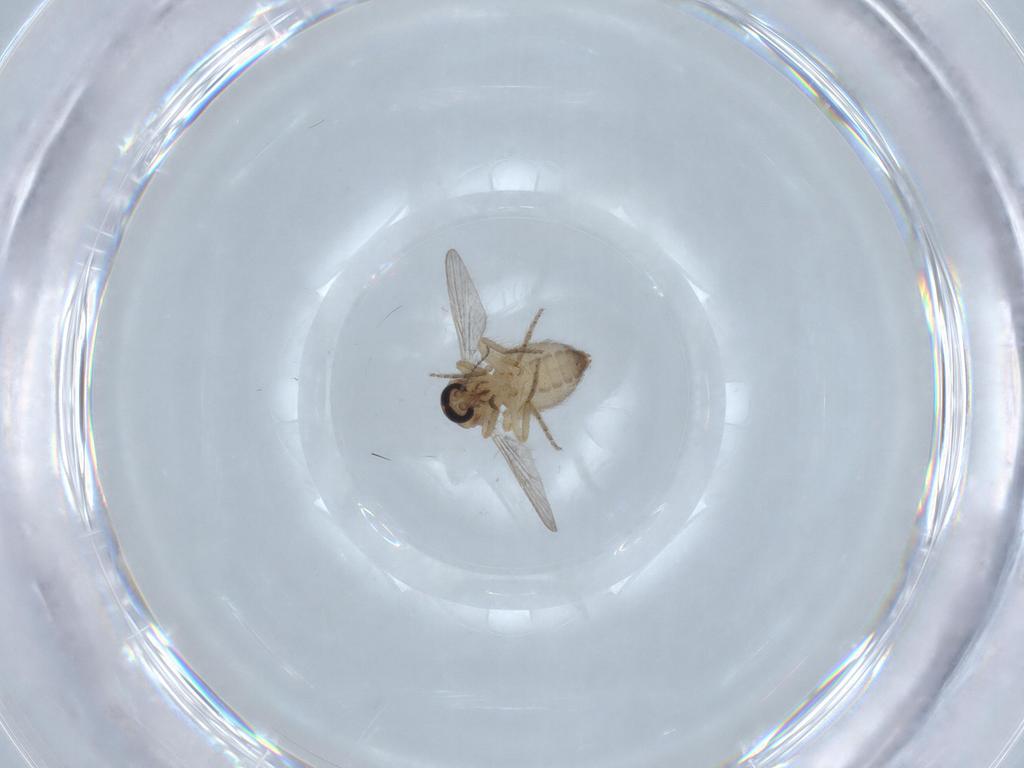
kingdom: Animalia
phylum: Arthropoda
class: Insecta
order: Diptera
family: Ceratopogonidae
